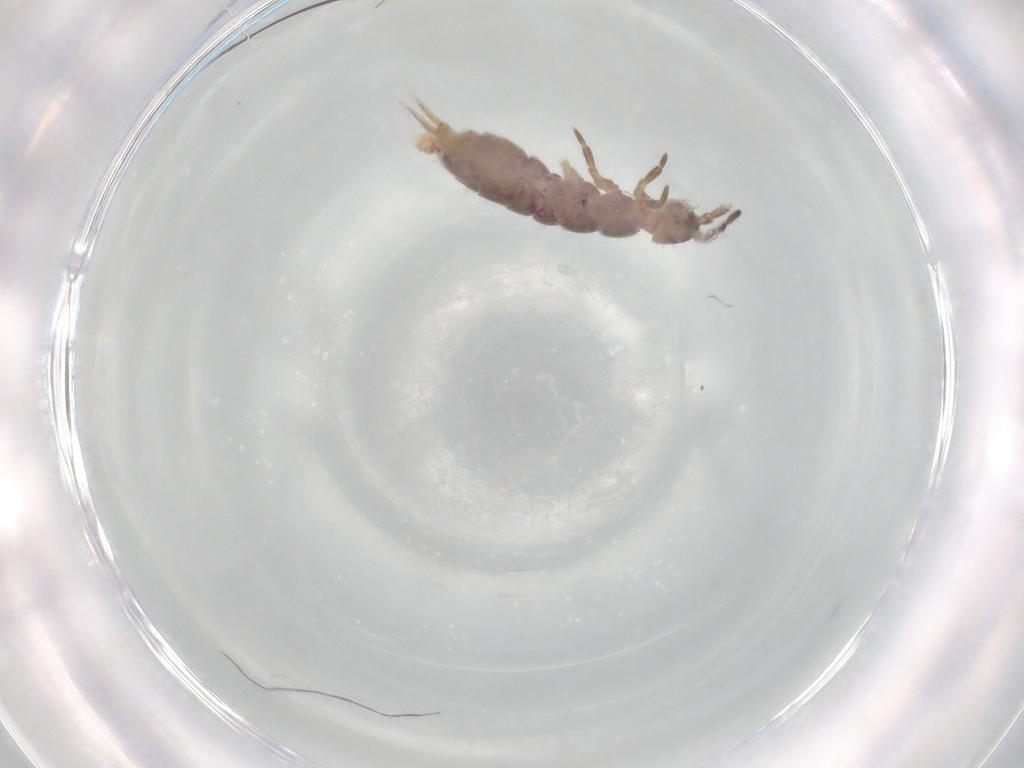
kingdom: Animalia
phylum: Arthropoda
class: Collembola
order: Entomobryomorpha
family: Isotomidae
